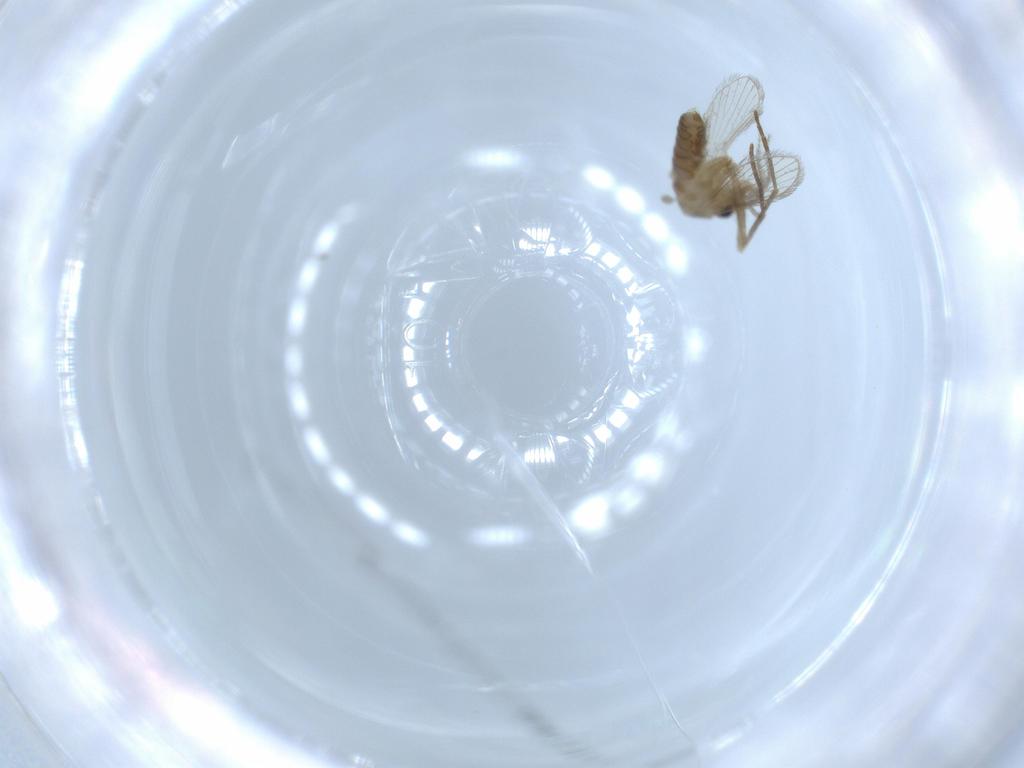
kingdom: Animalia
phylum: Arthropoda
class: Insecta
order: Diptera
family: Psychodidae
